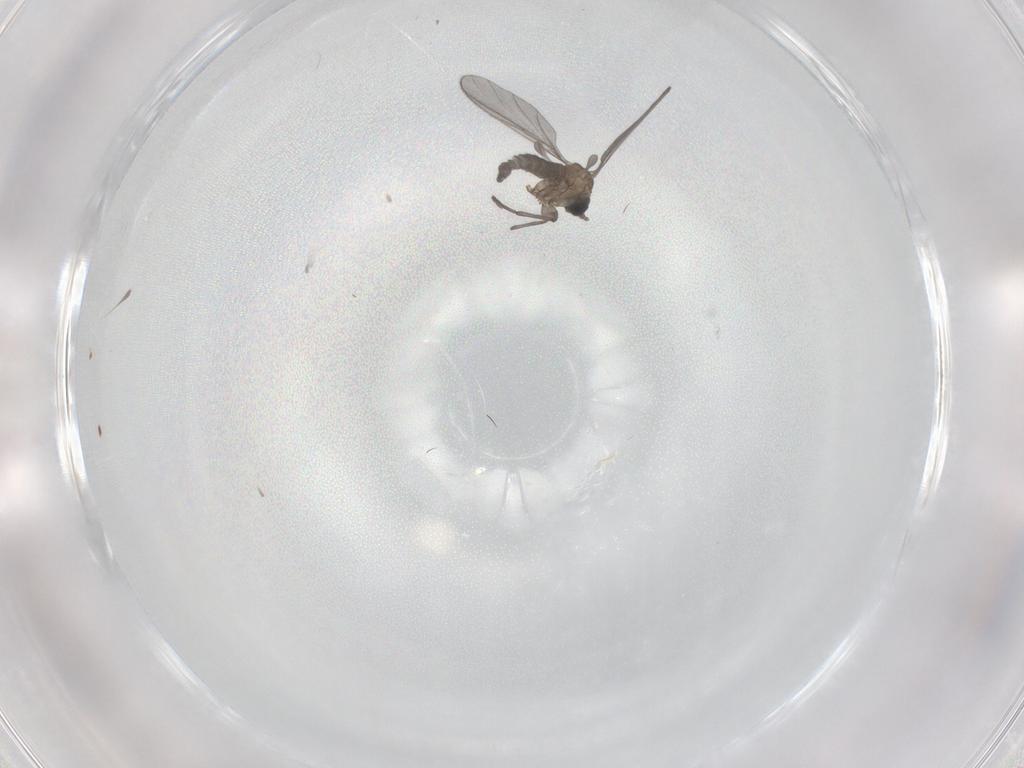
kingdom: Animalia
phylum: Arthropoda
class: Insecta
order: Diptera
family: Sciaridae
